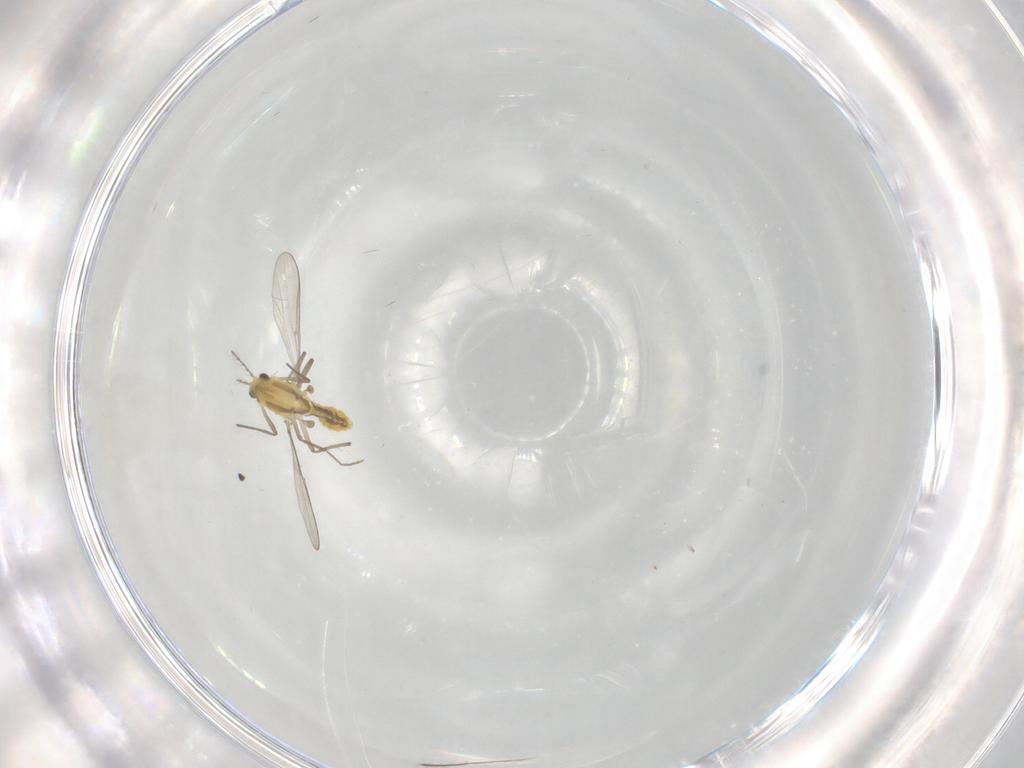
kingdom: Animalia
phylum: Arthropoda
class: Insecta
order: Diptera
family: Chironomidae
